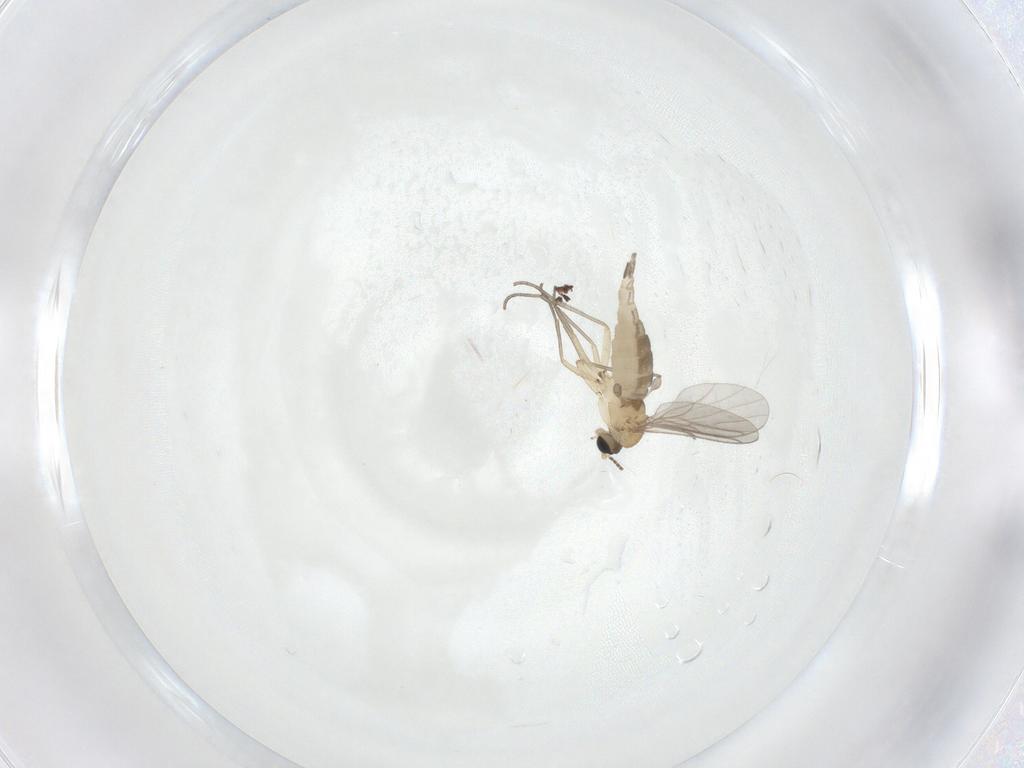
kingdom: Animalia
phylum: Arthropoda
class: Insecta
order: Diptera
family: Sciaridae
